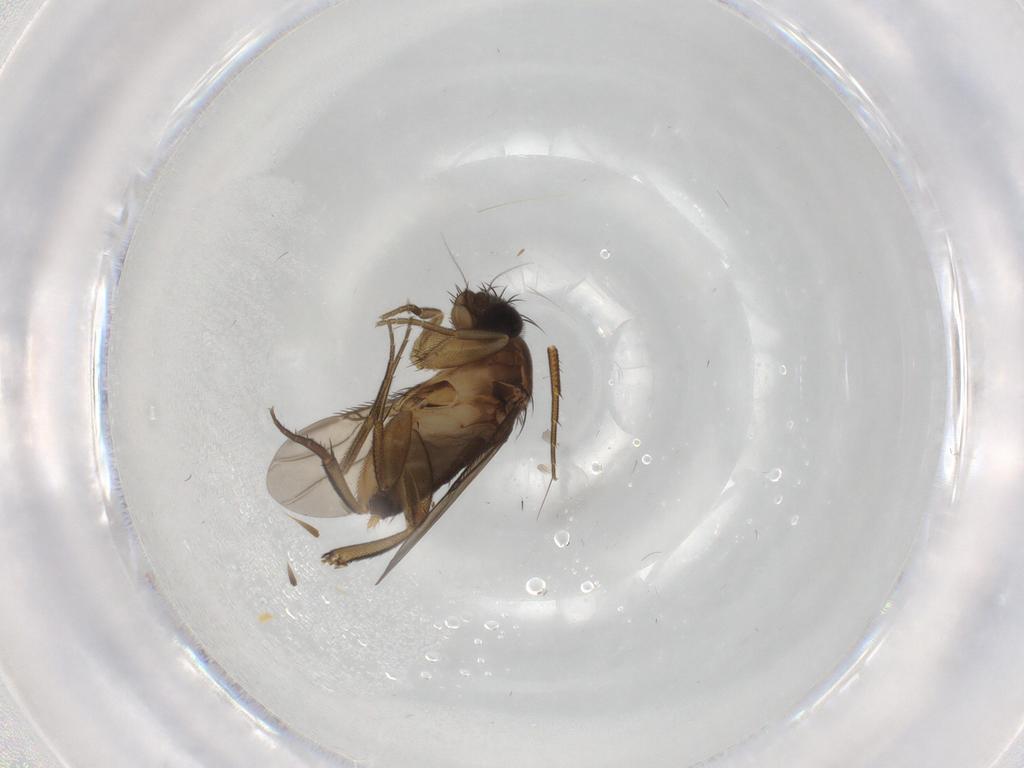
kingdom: Animalia
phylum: Arthropoda
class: Insecta
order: Diptera
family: Phoridae
